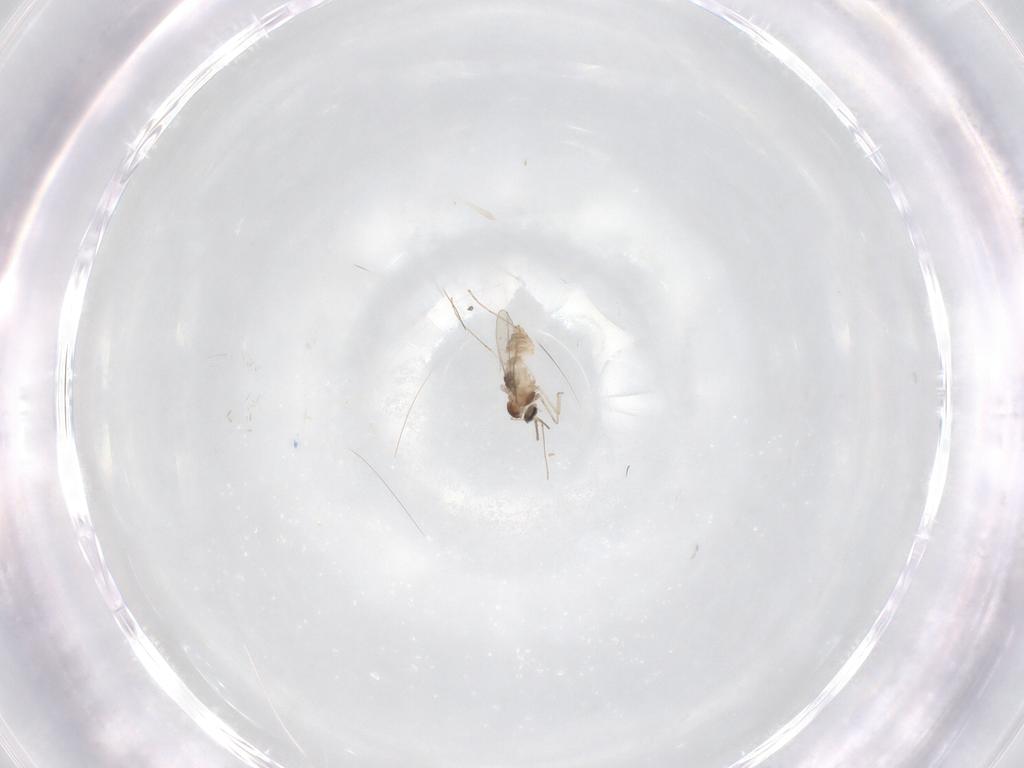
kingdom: Animalia
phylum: Arthropoda
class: Insecta
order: Diptera
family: Cecidomyiidae
